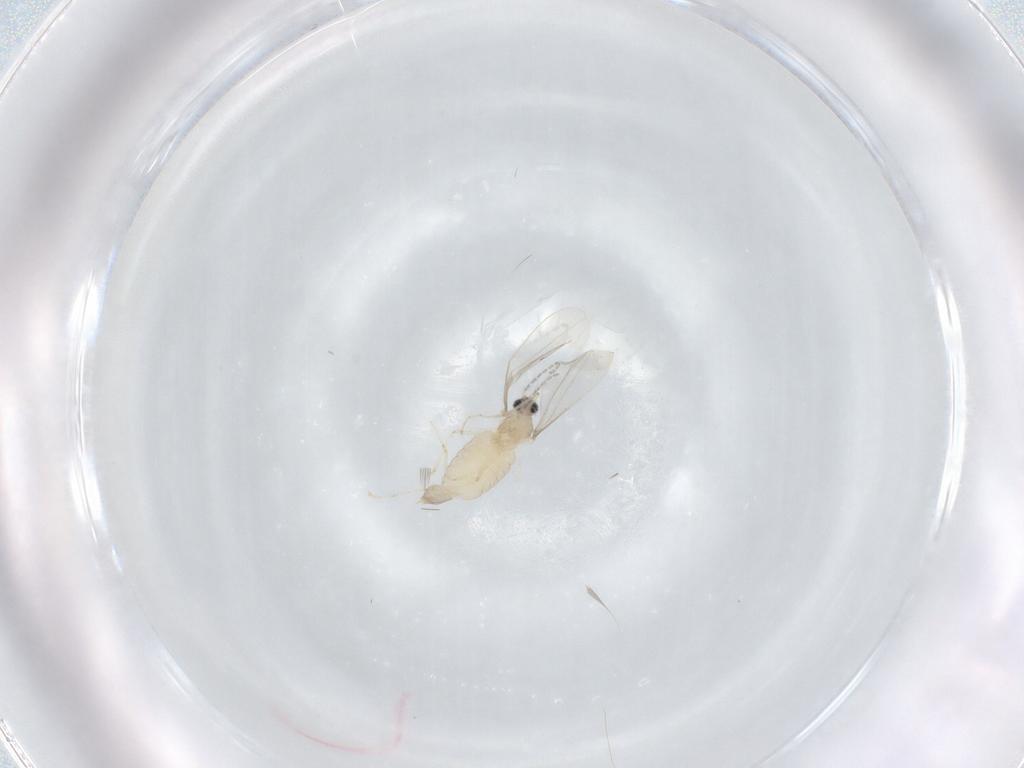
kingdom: Animalia
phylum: Arthropoda
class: Insecta
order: Diptera
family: Cecidomyiidae
